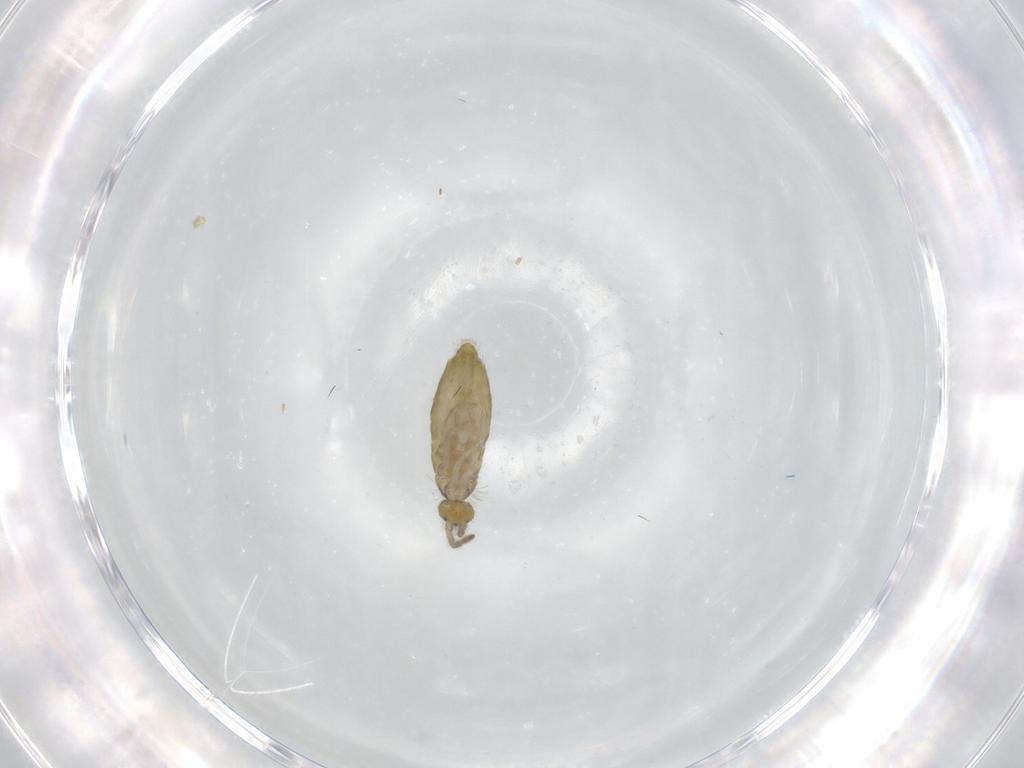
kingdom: Animalia
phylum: Arthropoda
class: Collembola
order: Entomobryomorpha
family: Entomobryidae
